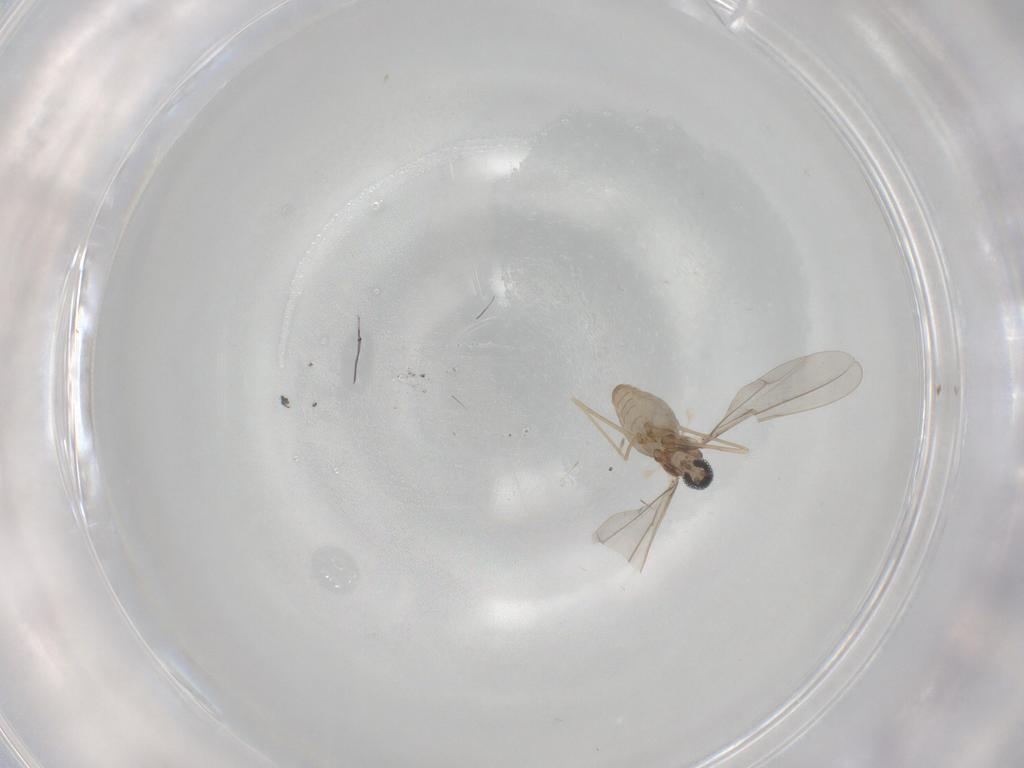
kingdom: Animalia
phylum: Arthropoda
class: Insecta
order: Diptera
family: Cecidomyiidae
